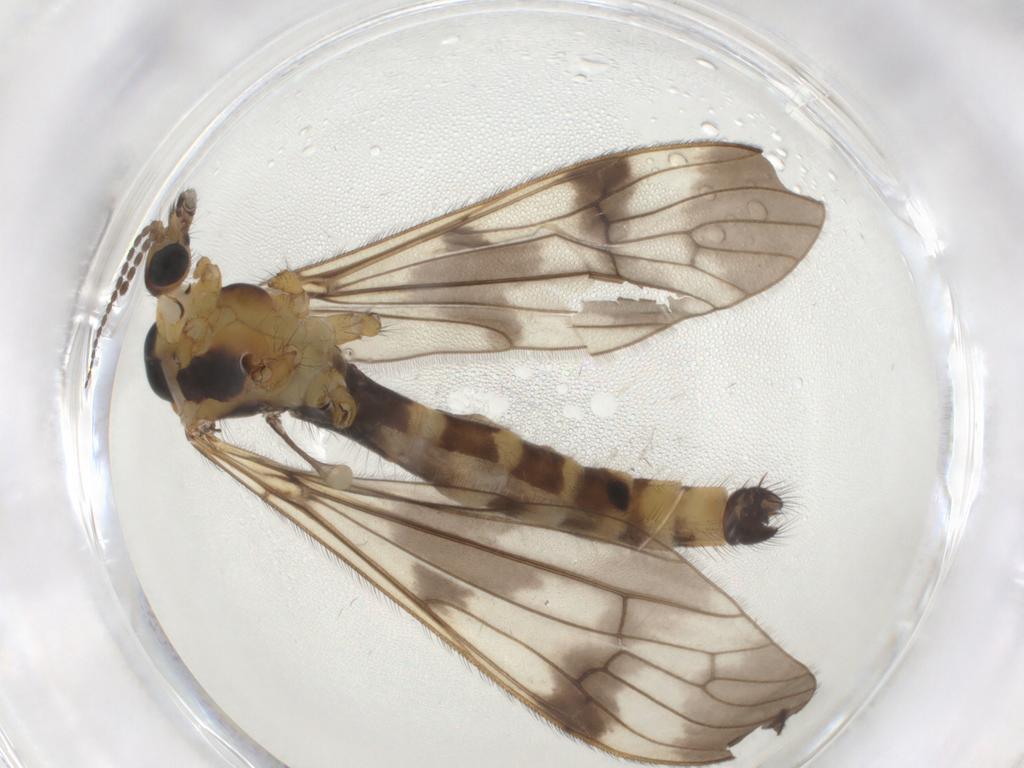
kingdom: Animalia
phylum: Arthropoda
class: Insecta
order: Diptera
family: Limoniidae
